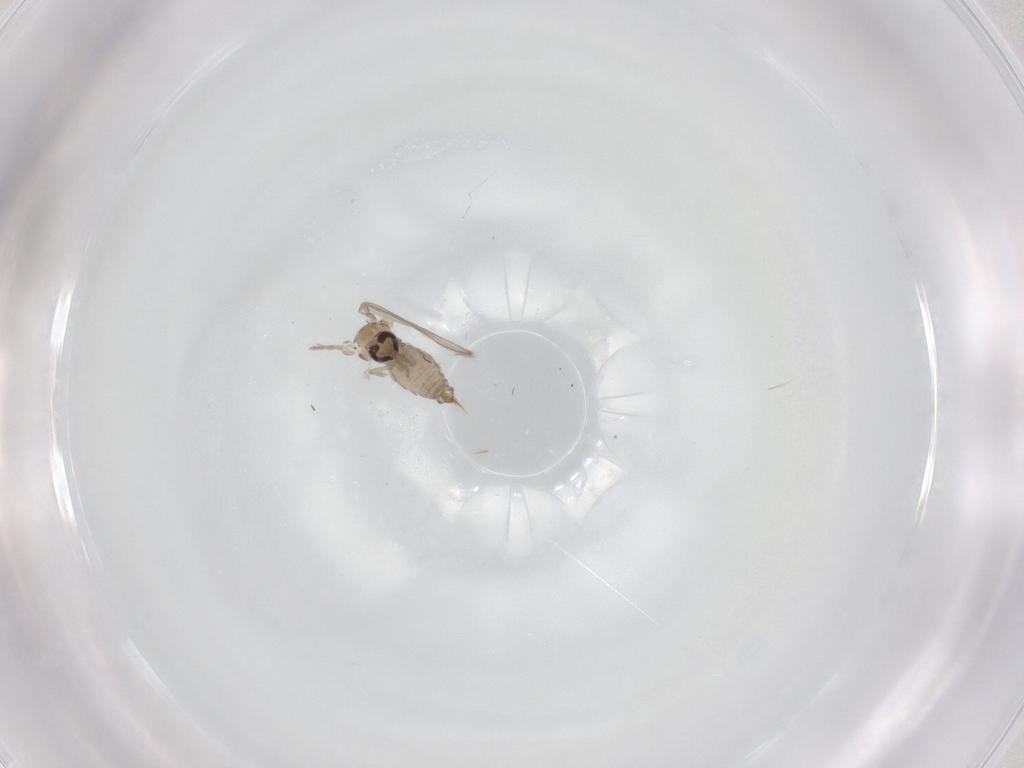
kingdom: Animalia
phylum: Arthropoda
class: Insecta
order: Diptera
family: Psychodidae
